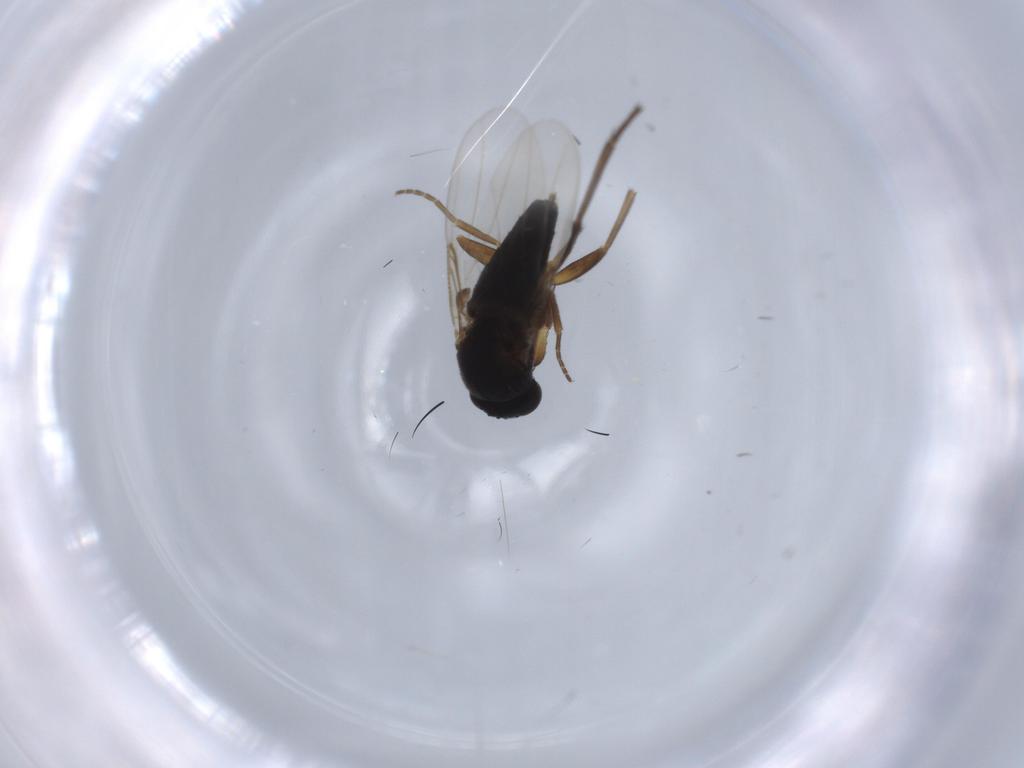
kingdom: Animalia
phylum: Arthropoda
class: Insecta
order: Diptera
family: Phoridae
